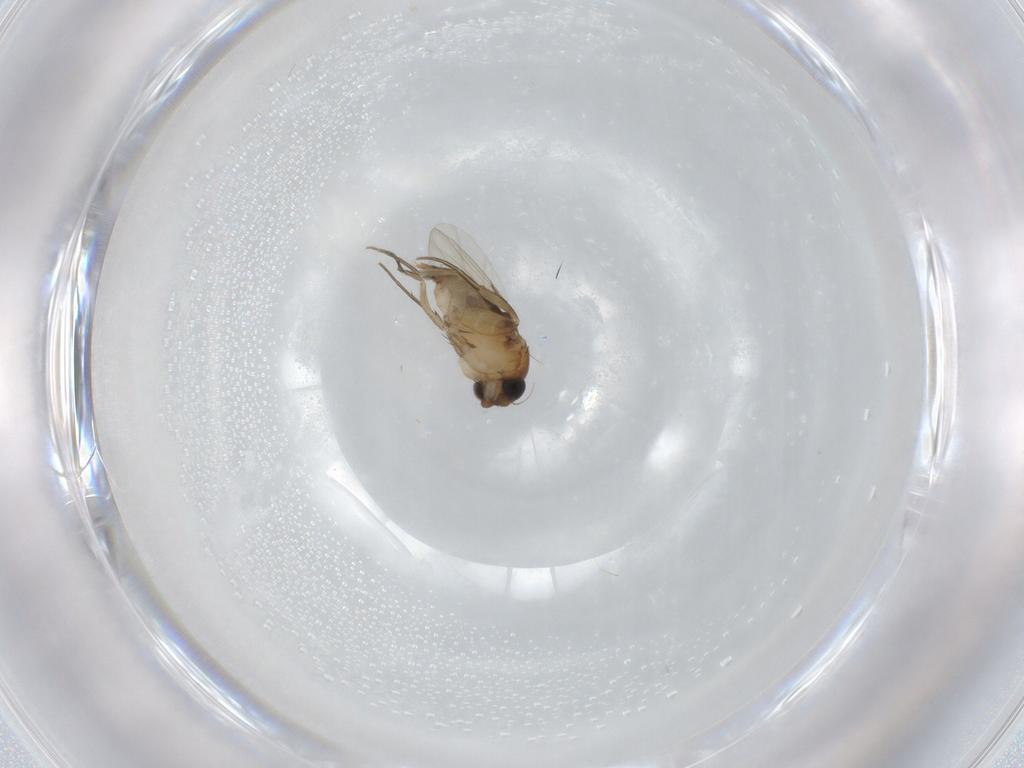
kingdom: Animalia
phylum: Arthropoda
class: Insecta
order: Diptera
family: Phoridae
